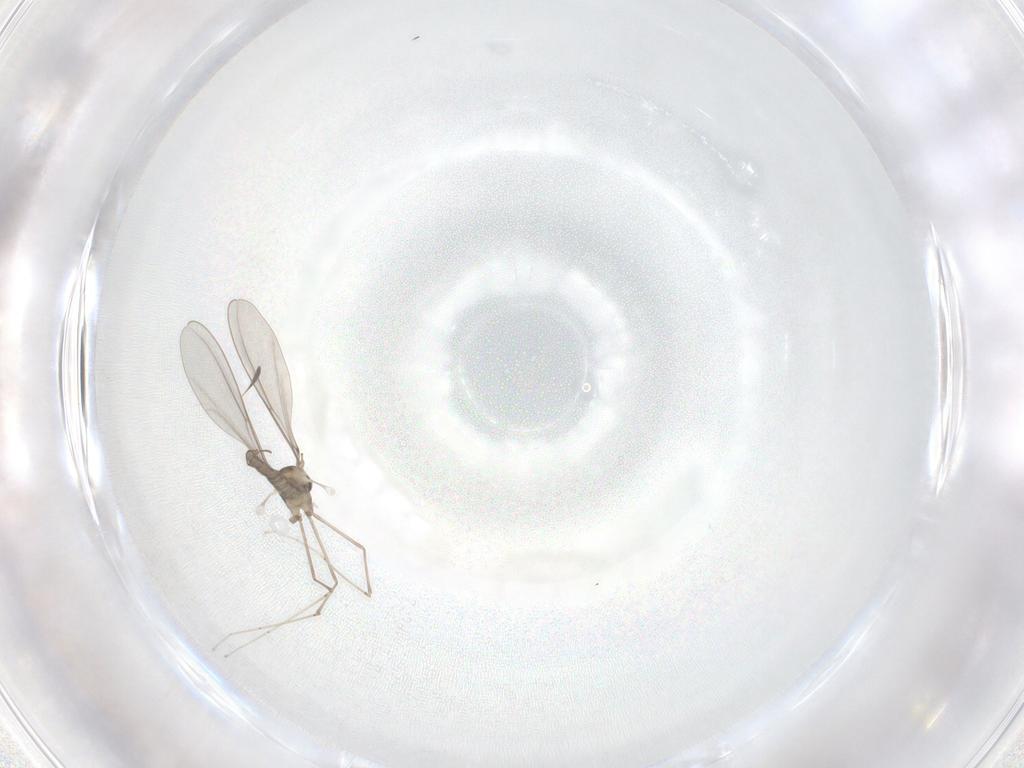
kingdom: Animalia
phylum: Arthropoda
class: Insecta
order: Diptera
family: Cecidomyiidae
